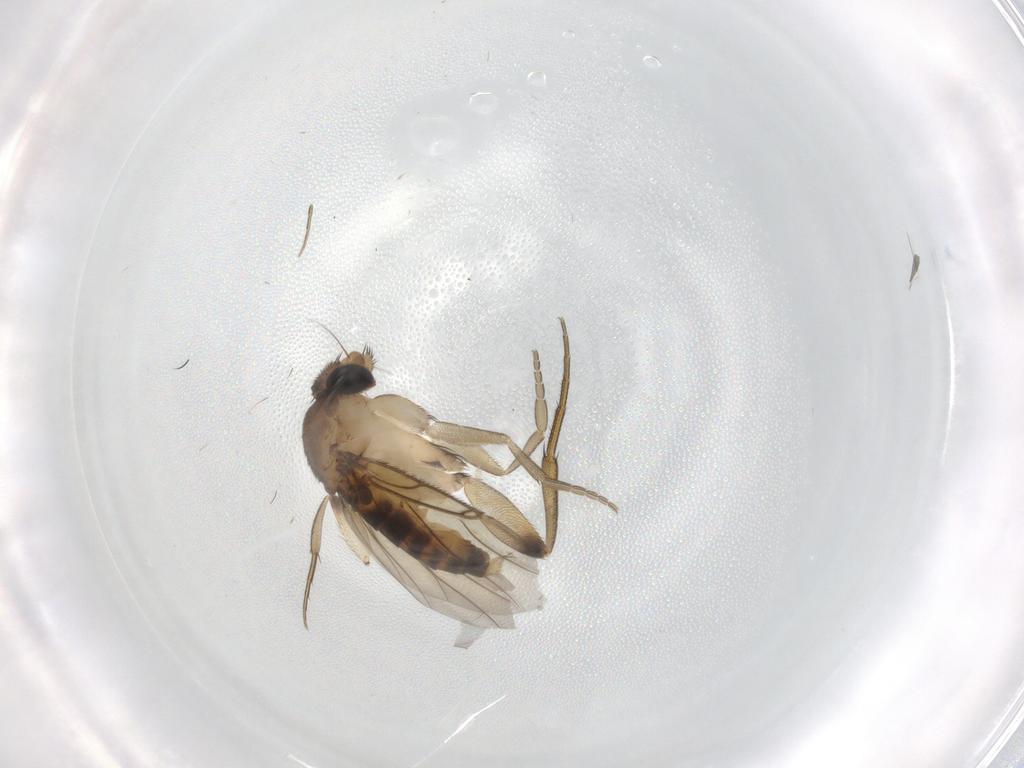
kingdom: Animalia
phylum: Arthropoda
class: Insecta
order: Diptera
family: Phoridae
